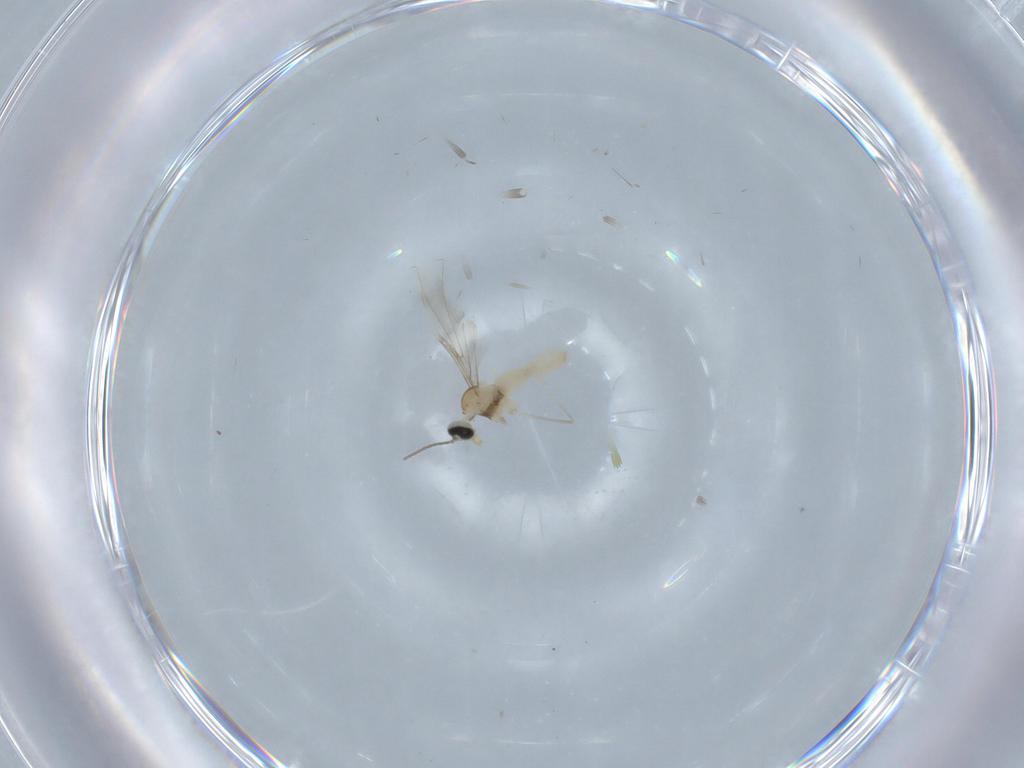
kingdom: Animalia
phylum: Arthropoda
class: Insecta
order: Diptera
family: Cecidomyiidae
